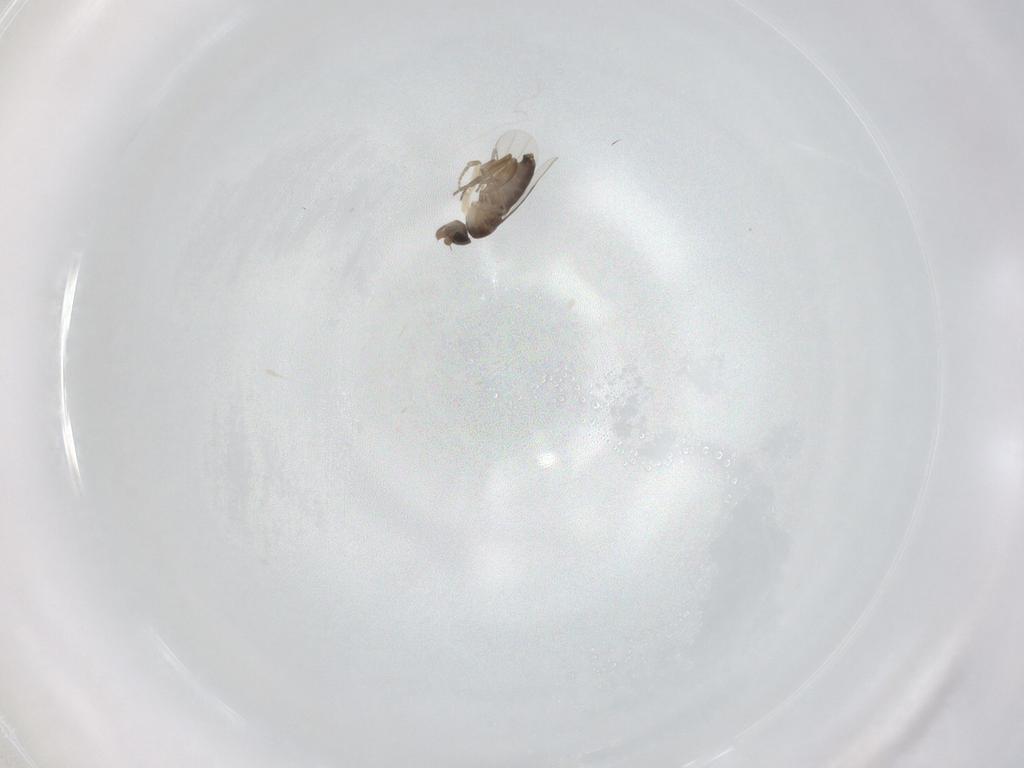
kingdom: Animalia
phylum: Arthropoda
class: Insecta
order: Diptera
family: Phoridae
